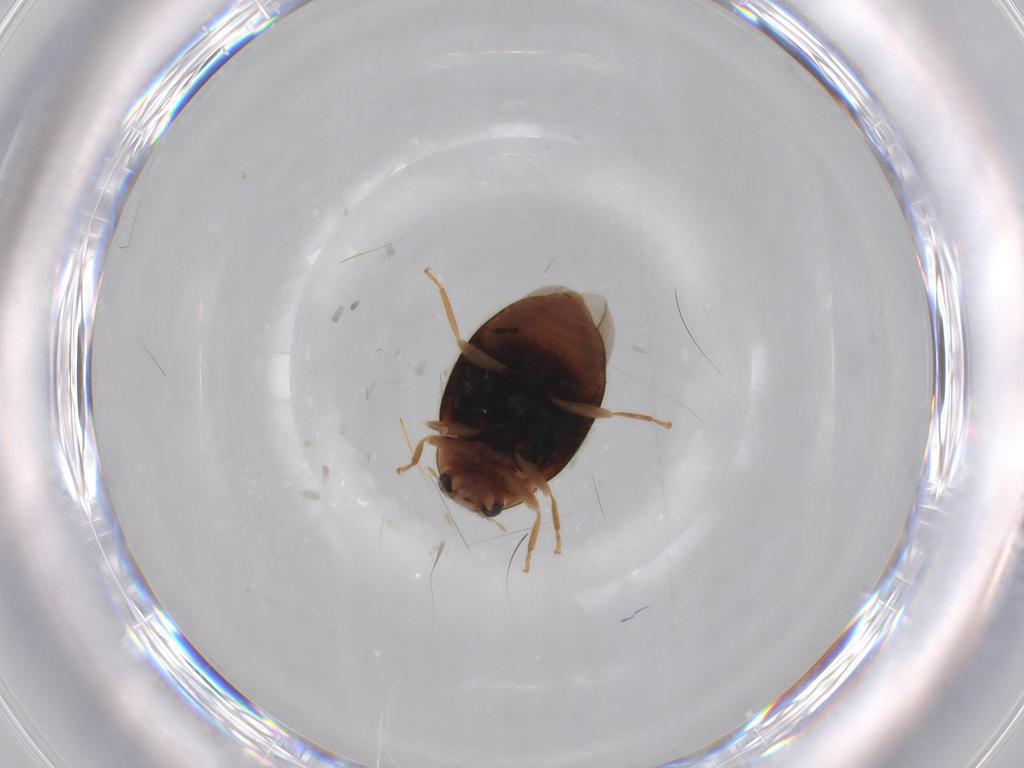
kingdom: Animalia
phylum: Arthropoda
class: Insecta
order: Coleoptera
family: Coccinellidae
